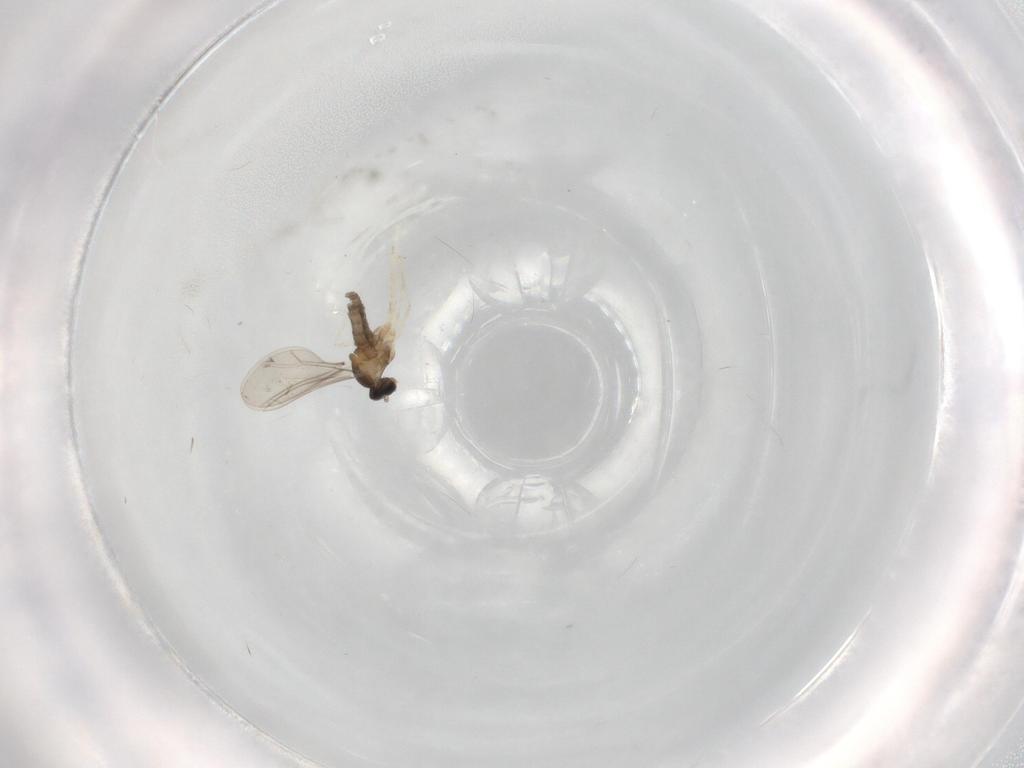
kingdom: Animalia
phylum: Arthropoda
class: Insecta
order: Diptera
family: Cecidomyiidae
